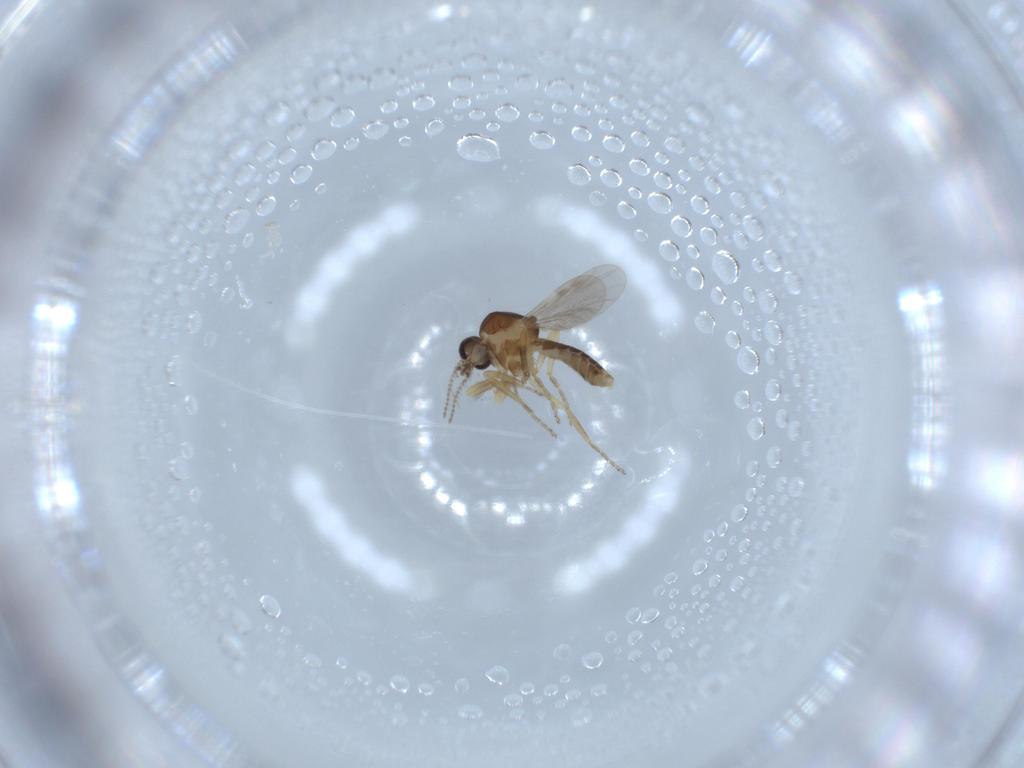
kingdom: Animalia
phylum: Arthropoda
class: Insecta
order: Diptera
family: Ceratopogonidae
